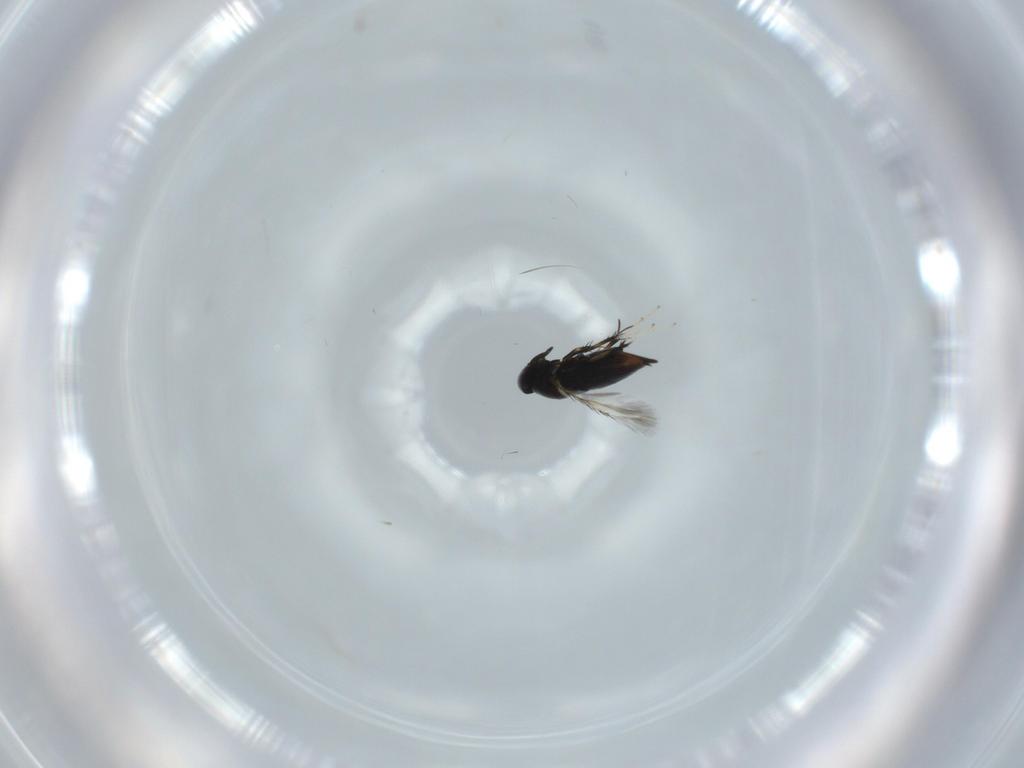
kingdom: Animalia
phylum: Arthropoda
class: Insecta
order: Hymenoptera
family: Signiphoridae
